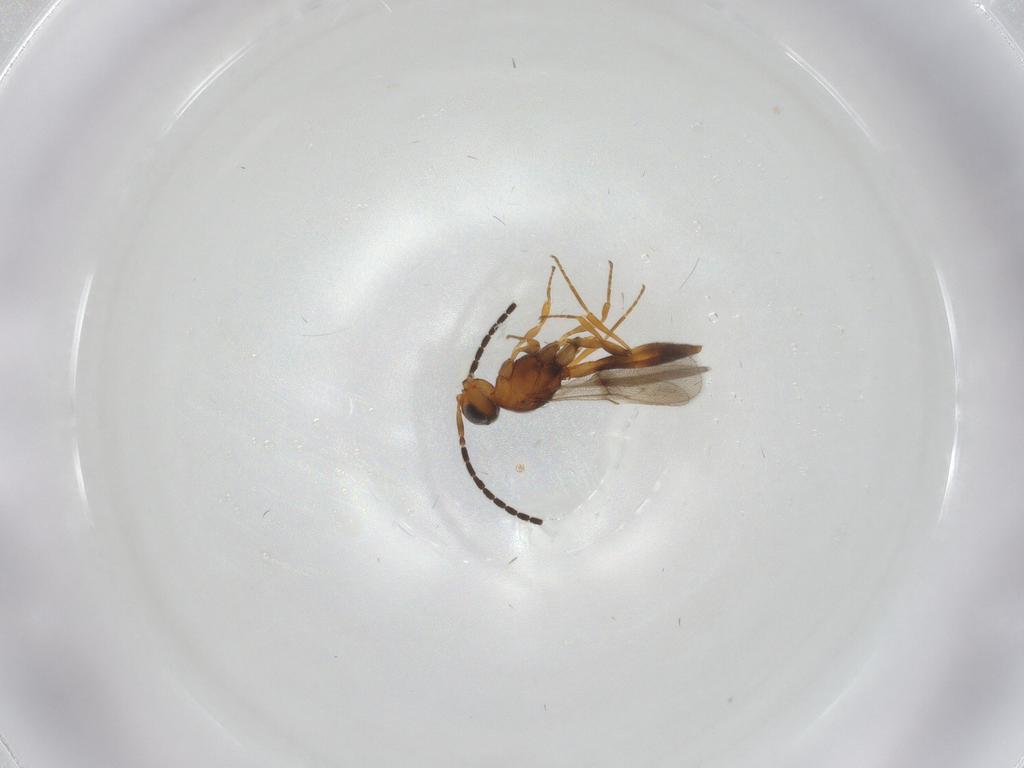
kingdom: Animalia
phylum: Arthropoda
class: Insecta
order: Hymenoptera
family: Scelionidae
